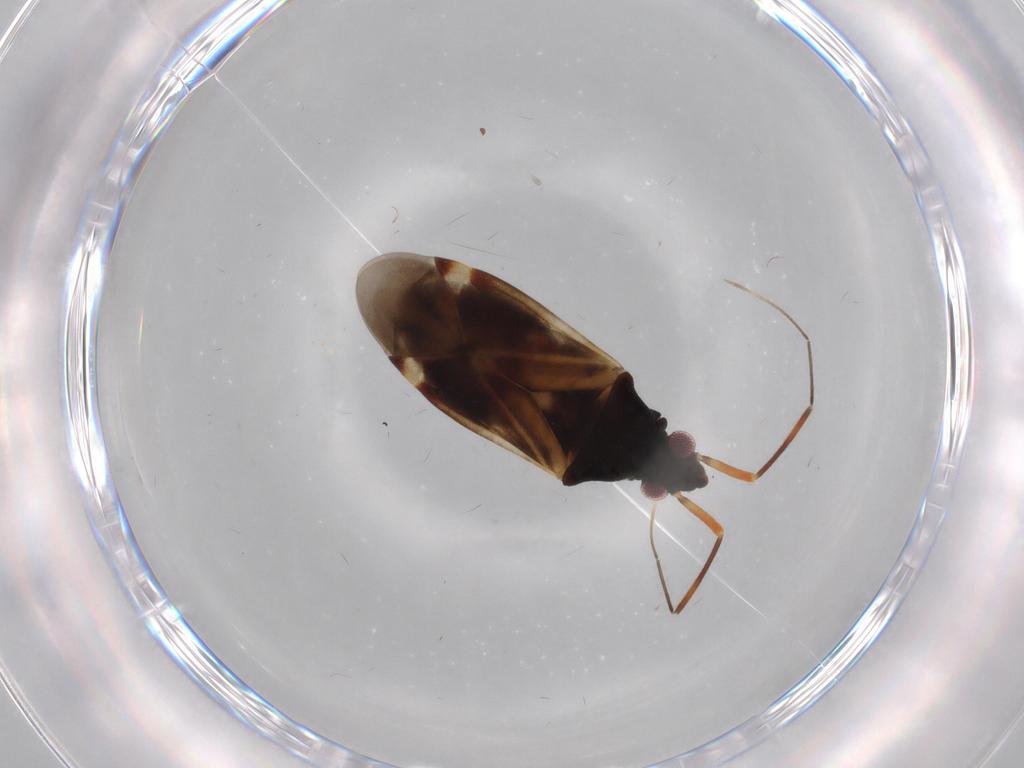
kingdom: Animalia
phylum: Arthropoda
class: Insecta
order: Hemiptera
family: Miridae
